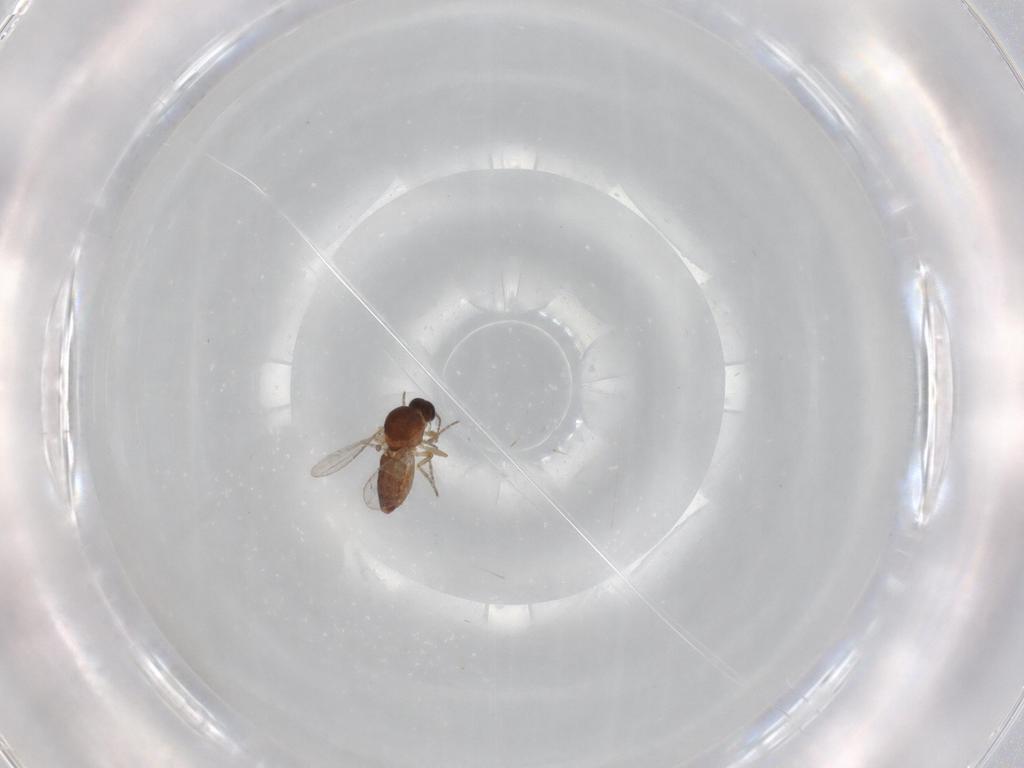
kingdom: Animalia
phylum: Arthropoda
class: Insecta
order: Diptera
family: Ceratopogonidae
